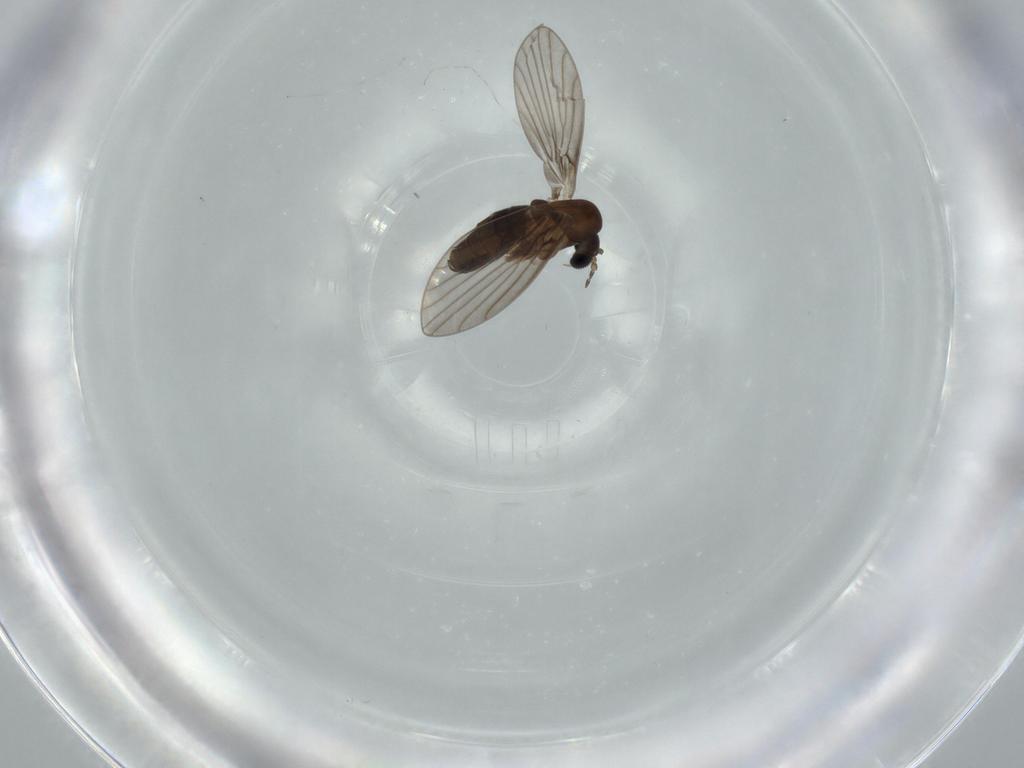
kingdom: Animalia
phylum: Arthropoda
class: Insecta
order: Diptera
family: Psychodidae
